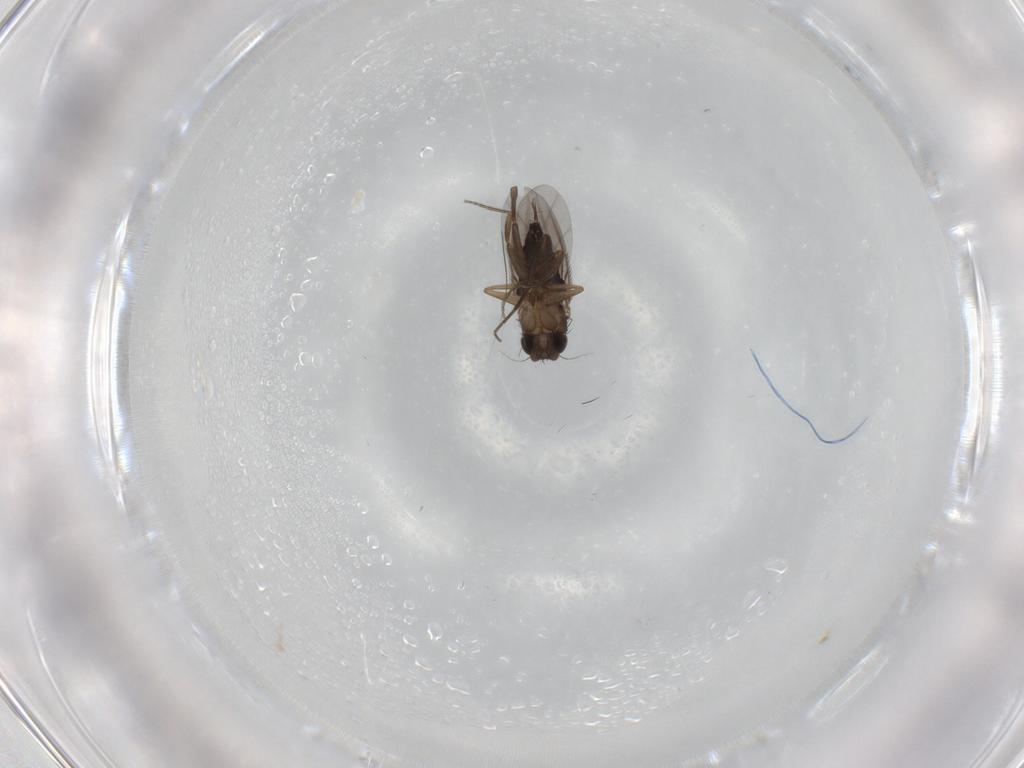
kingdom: Animalia
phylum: Arthropoda
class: Insecta
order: Diptera
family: Phoridae
